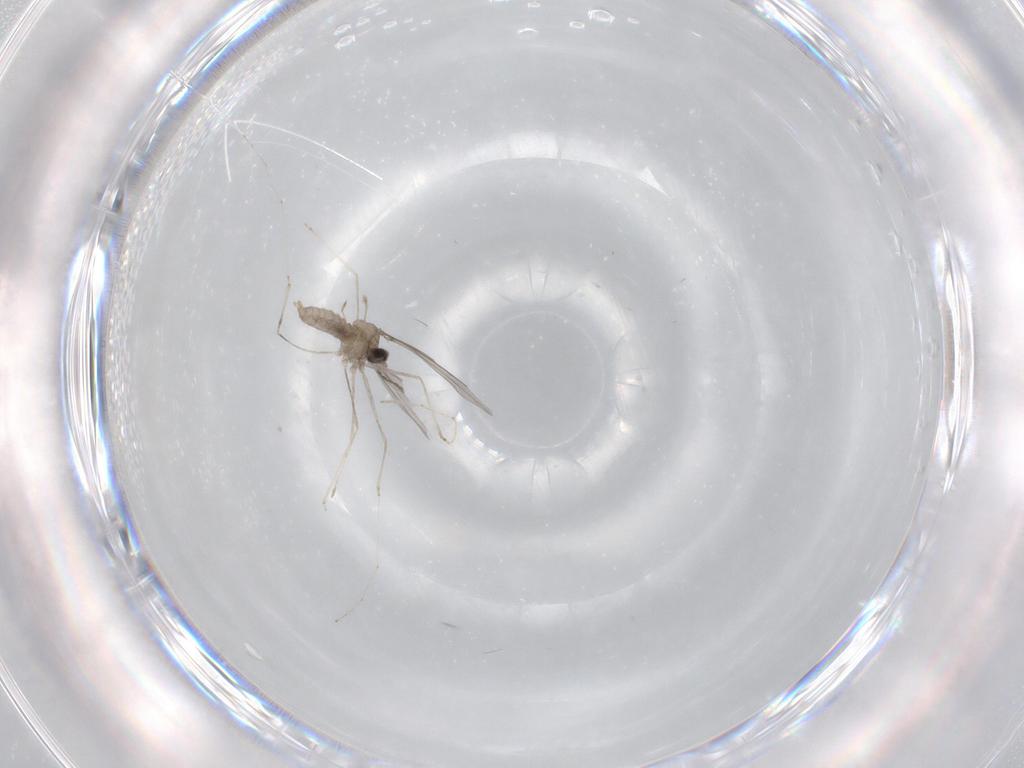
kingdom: Animalia
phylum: Arthropoda
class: Insecta
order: Diptera
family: Cecidomyiidae
